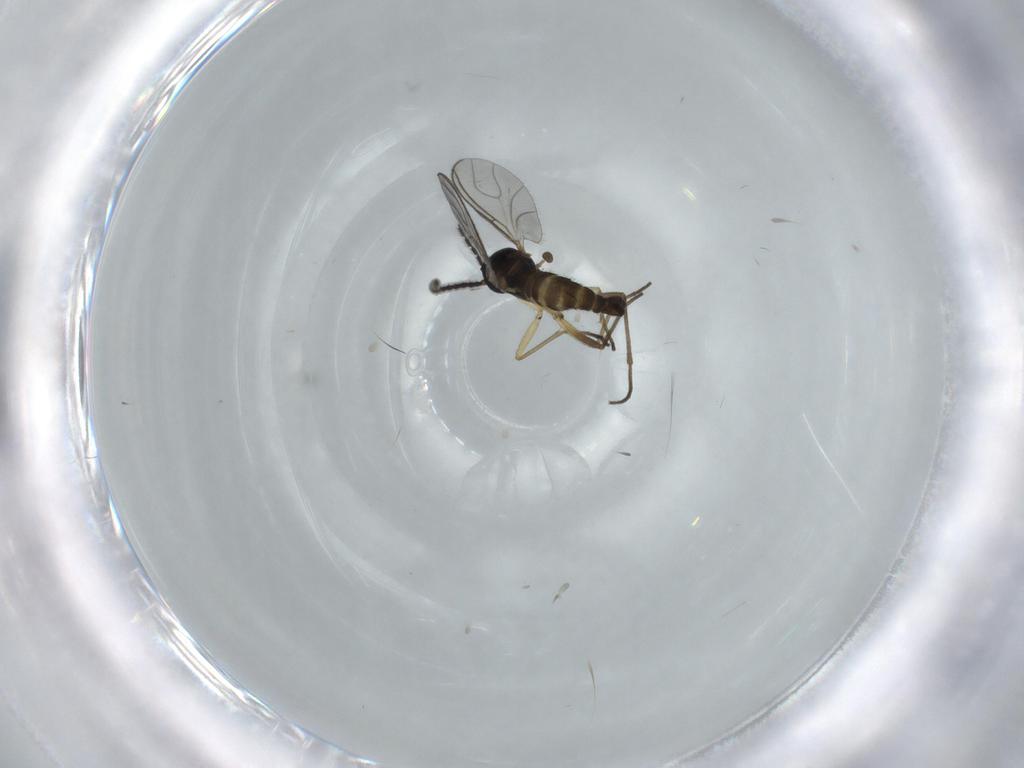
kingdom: Animalia
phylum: Arthropoda
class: Insecta
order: Diptera
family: Sciaridae
